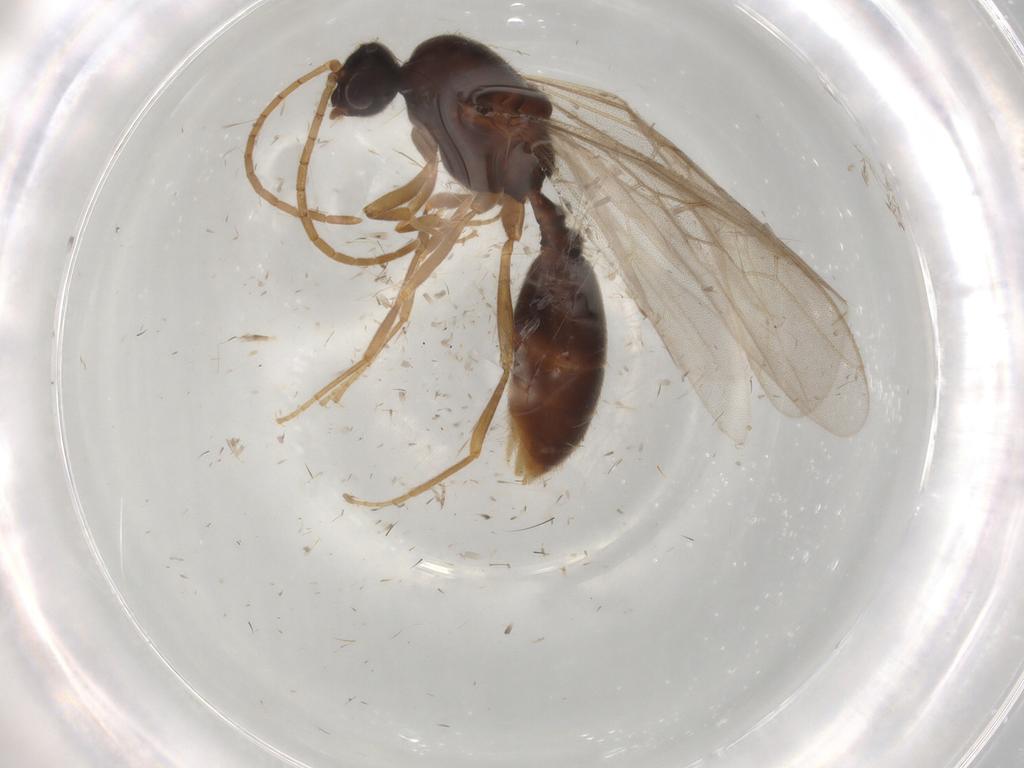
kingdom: Animalia
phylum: Arthropoda
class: Insecta
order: Hymenoptera
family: Formicidae
